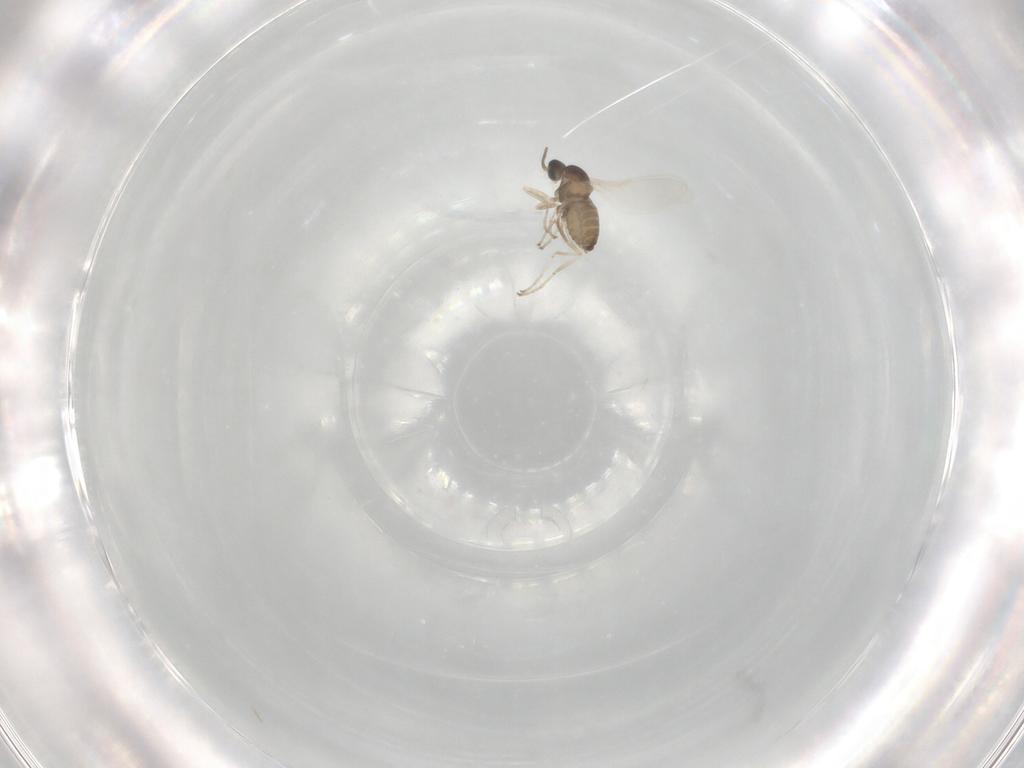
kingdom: Animalia
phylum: Arthropoda
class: Insecta
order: Diptera
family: Cecidomyiidae
